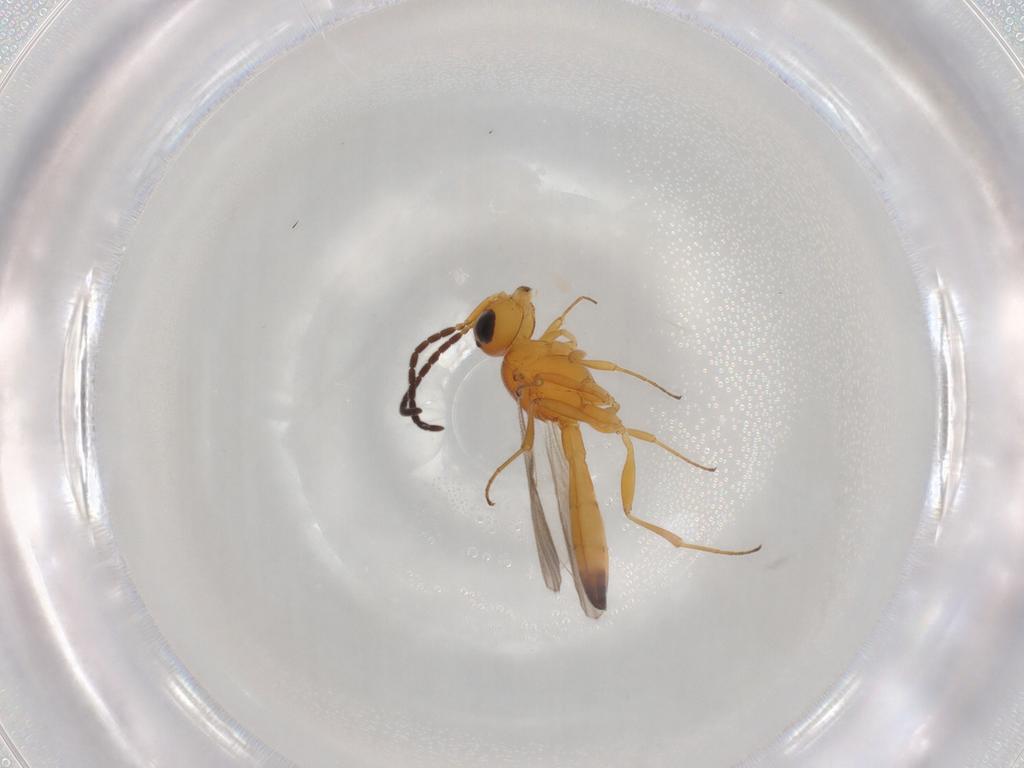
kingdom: Animalia
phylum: Arthropoda
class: Insecta
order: Hymenoptera
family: Scelionidae
